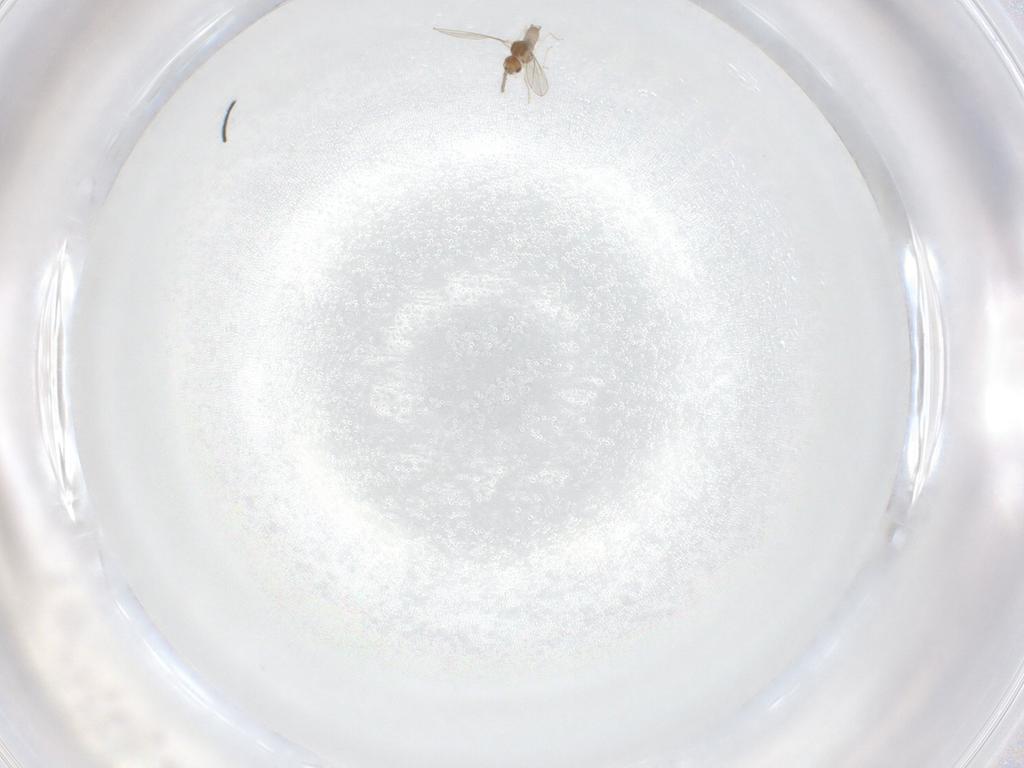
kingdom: Animalia
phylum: Arthropoda
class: Insecta
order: Diptera
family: Cecidomyiidae
